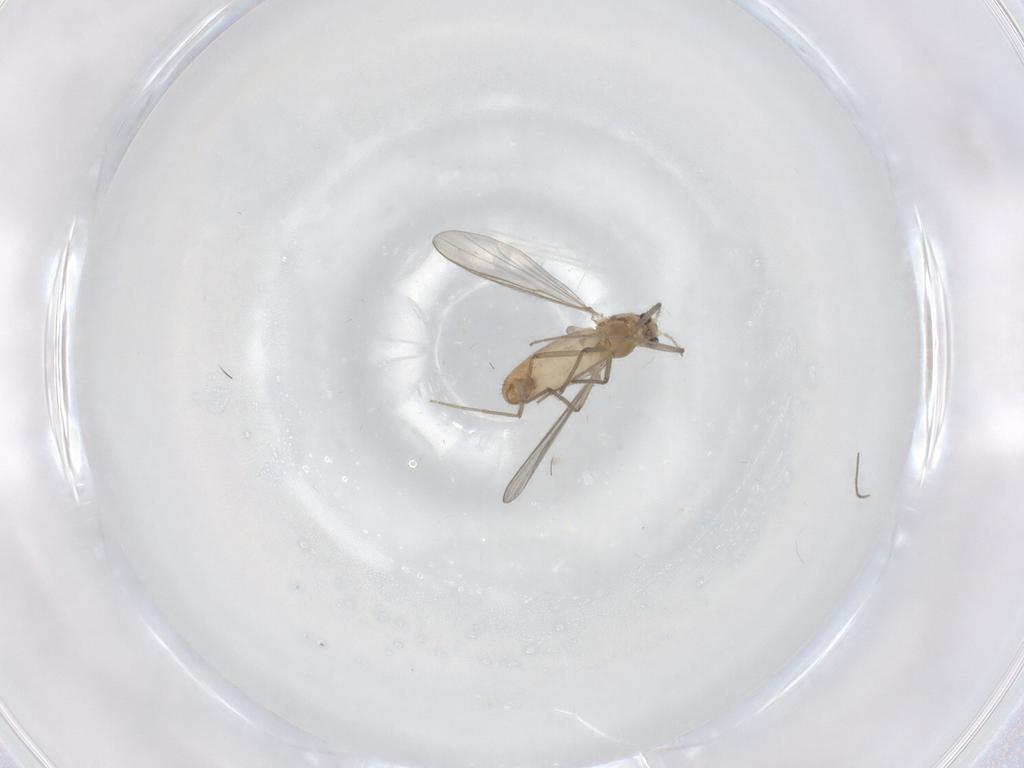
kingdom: Animalia
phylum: Arthropoda
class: Insecta
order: Diptera
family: Chironomidae
